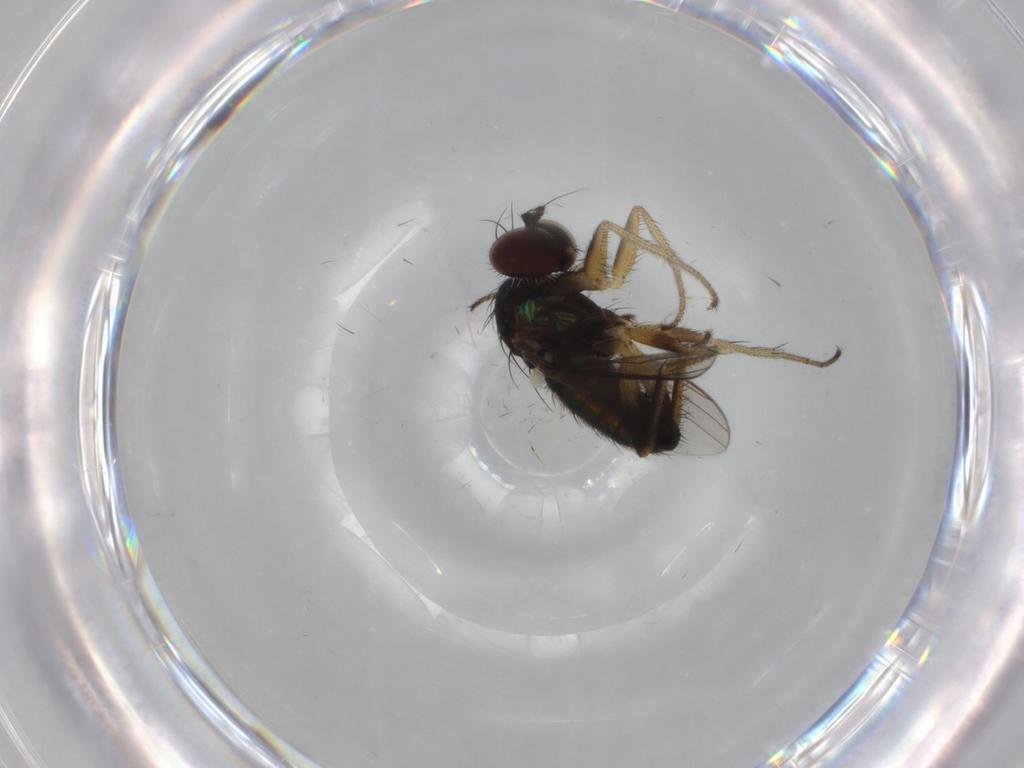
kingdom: Animalia
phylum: Arthropoda
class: Insecta
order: Diptera
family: Dolichopodidae
